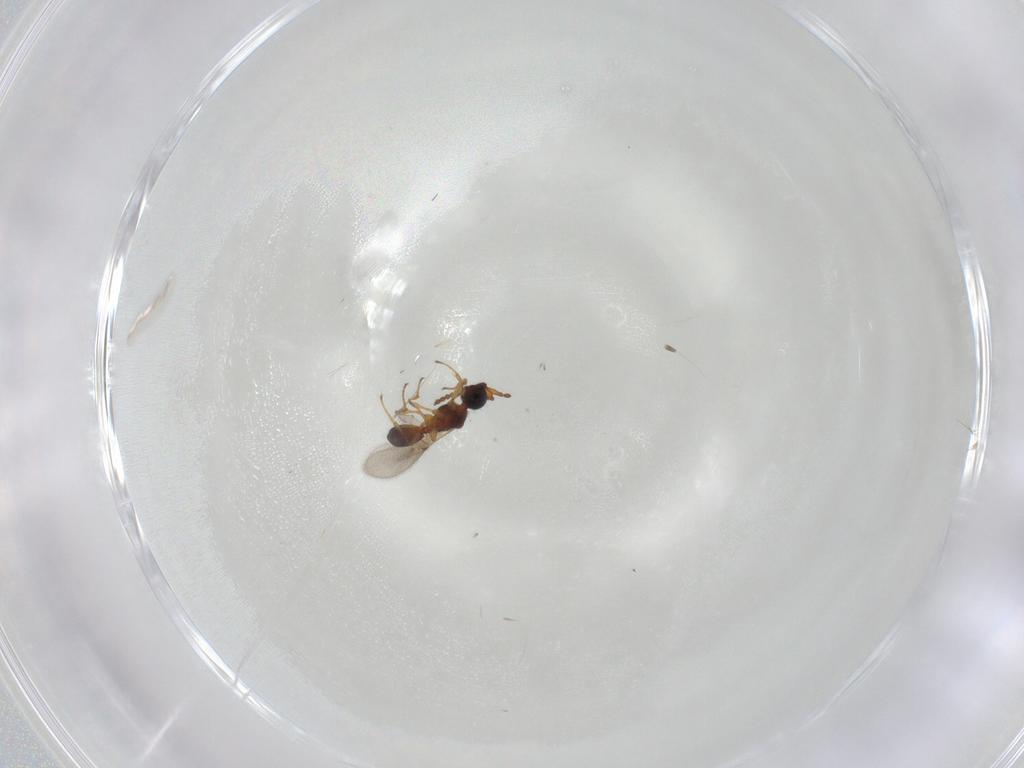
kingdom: Animalia
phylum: Arthropoda
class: Insecta
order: Hymenoptera
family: Diapriidae
